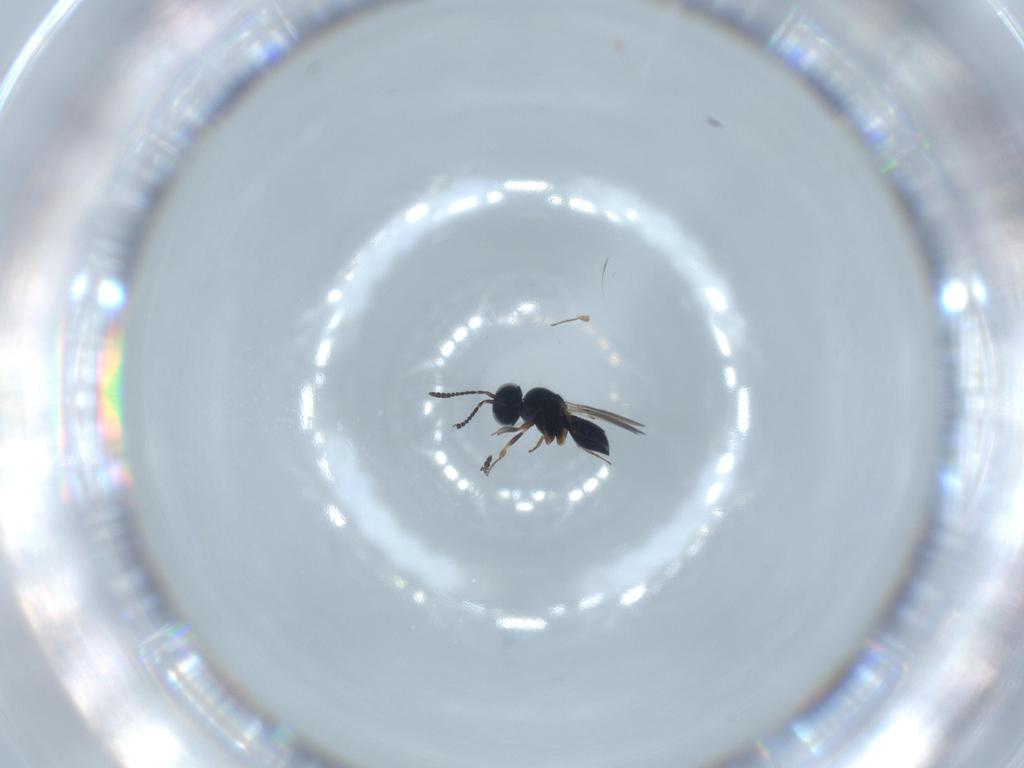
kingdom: Animalia
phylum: Arthropoda
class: Insecta
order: Hymenoptera
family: Scelionidae
